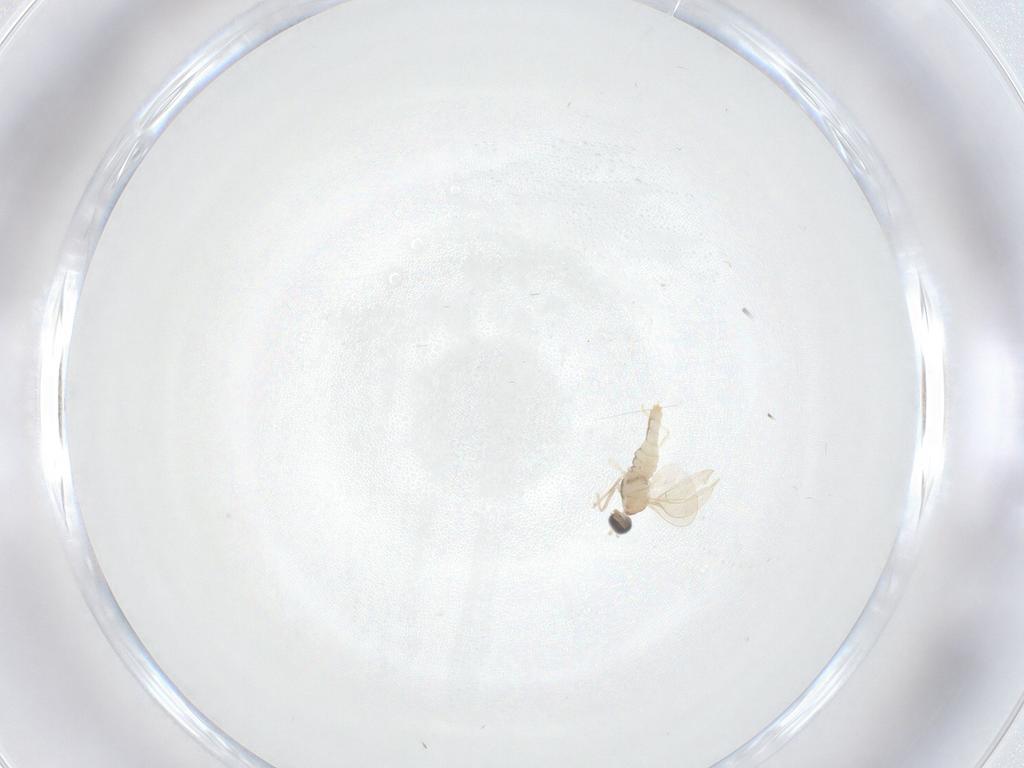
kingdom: Animalia
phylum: Arthropoda
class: Insecta
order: Diptera
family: Cecidomyiidae
